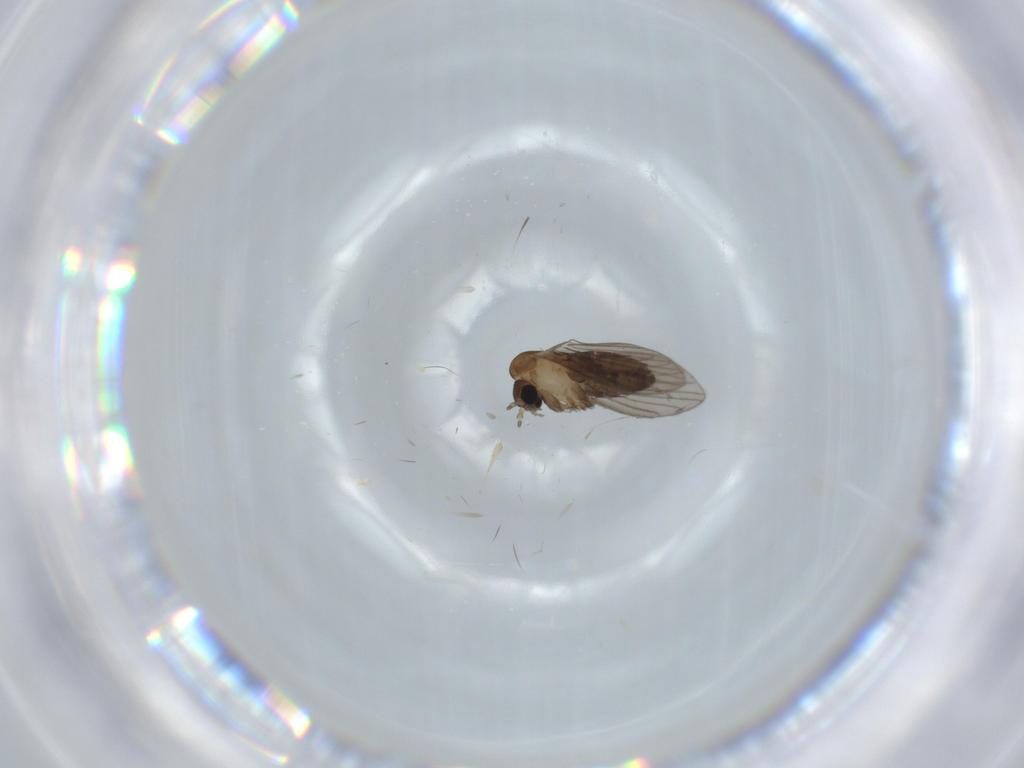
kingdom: Animalia
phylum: Arthropoda
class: Insecta
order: Diptera
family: Psychodidae
